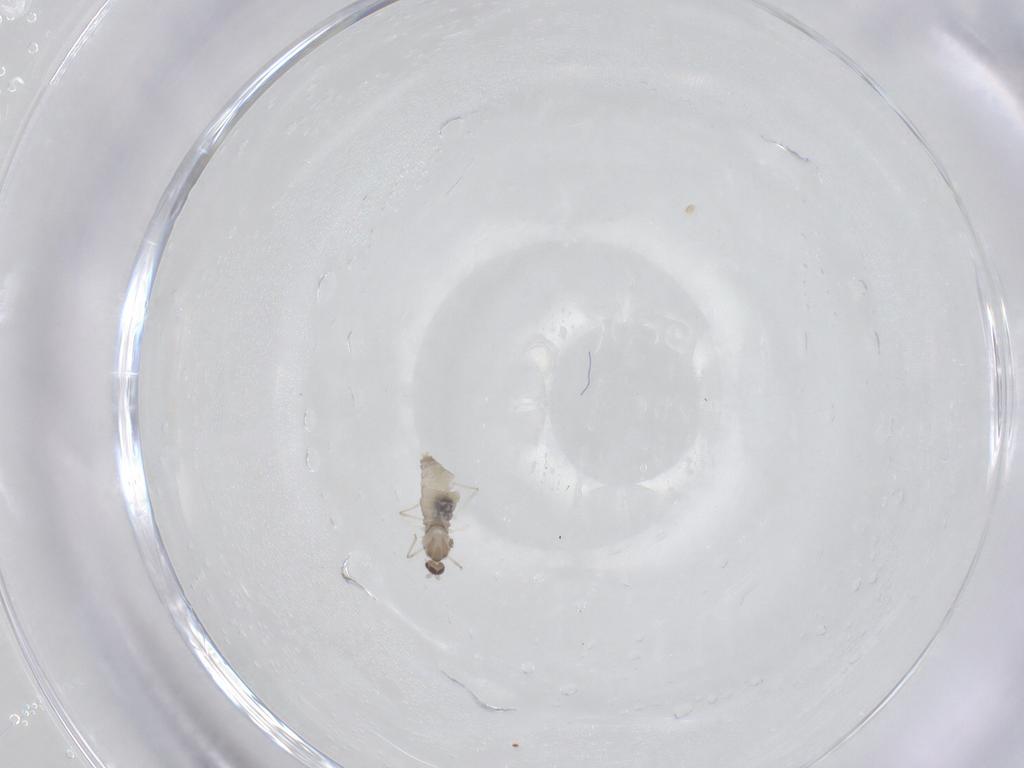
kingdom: Animalia
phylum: Arthropoda
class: Insecta
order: Diptera
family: Cecidomyiidae
